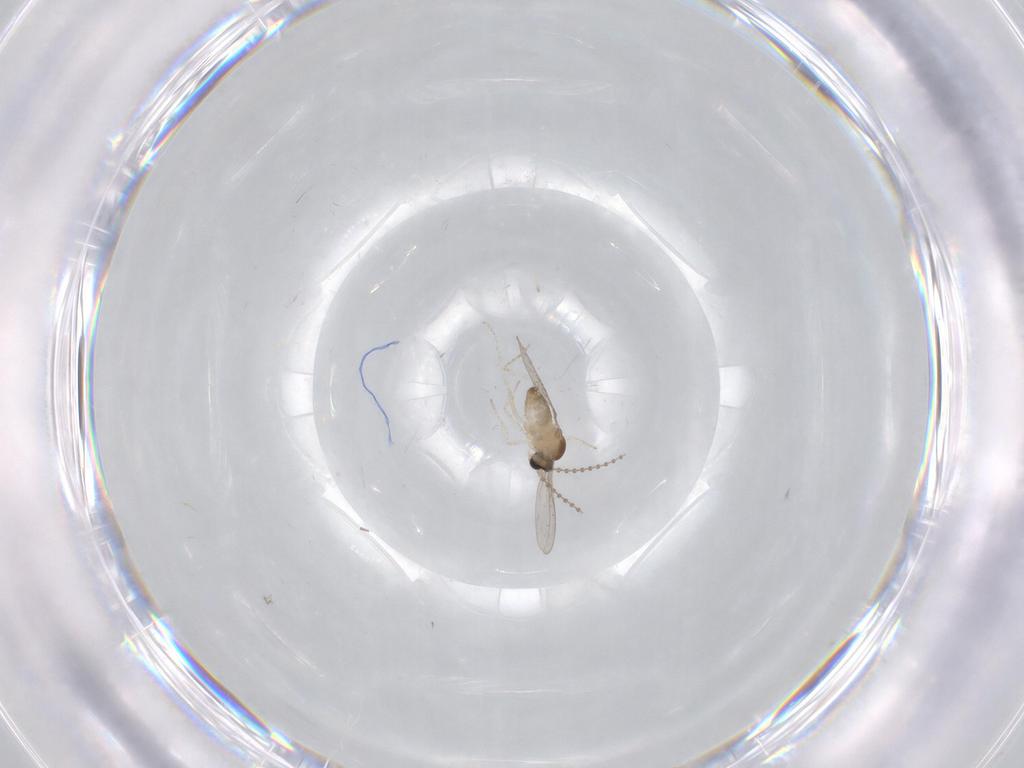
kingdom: Animalia
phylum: Arthropoda
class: Insecta
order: Diptera
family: Cecidomyiidae
